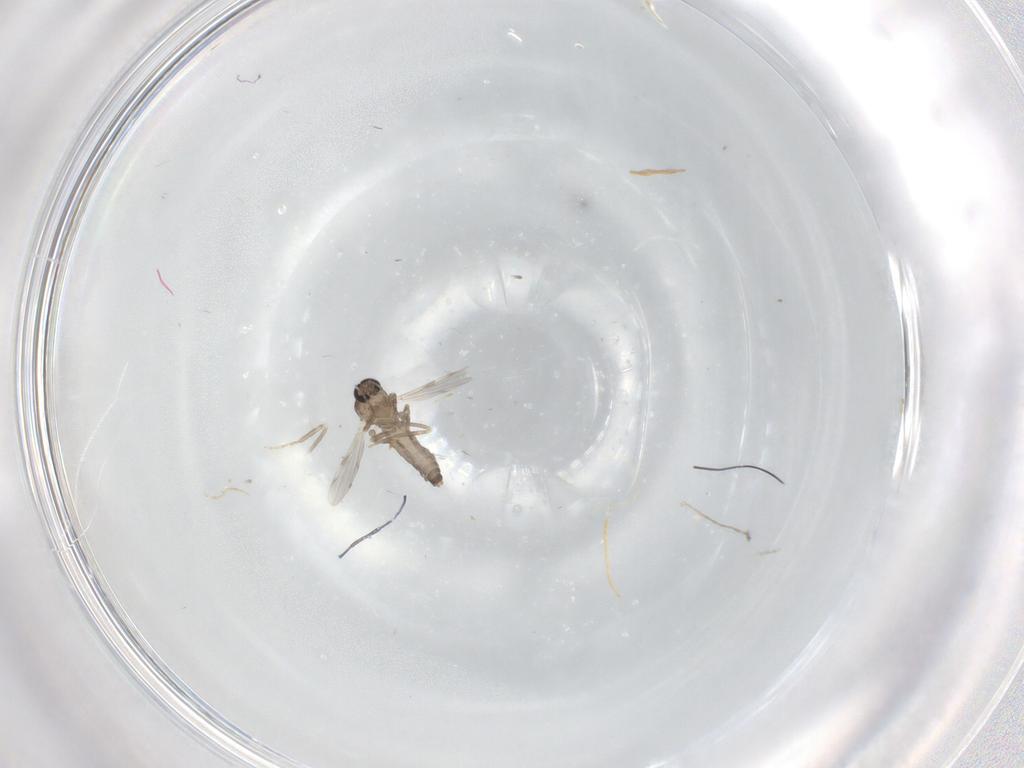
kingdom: Animalia
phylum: Arthropoda
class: Insecta
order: Diptera
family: Ceratopogonidae
